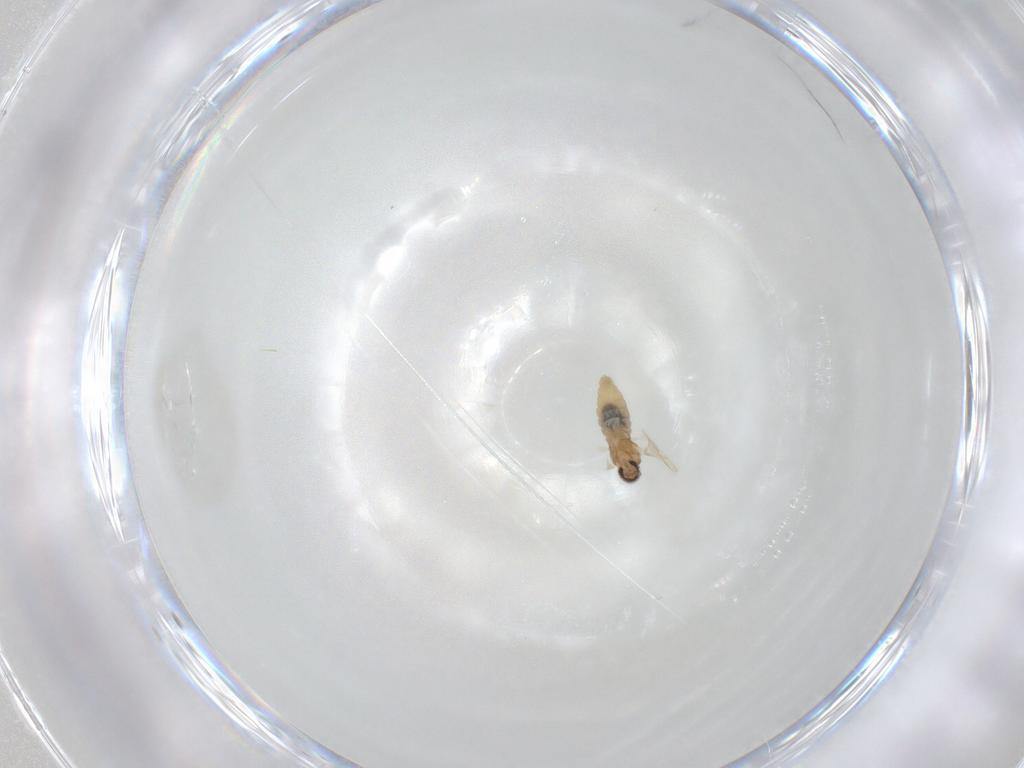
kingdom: Animalia
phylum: Arthropoda
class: Insecta
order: Diptera
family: Cecidomyiidae
